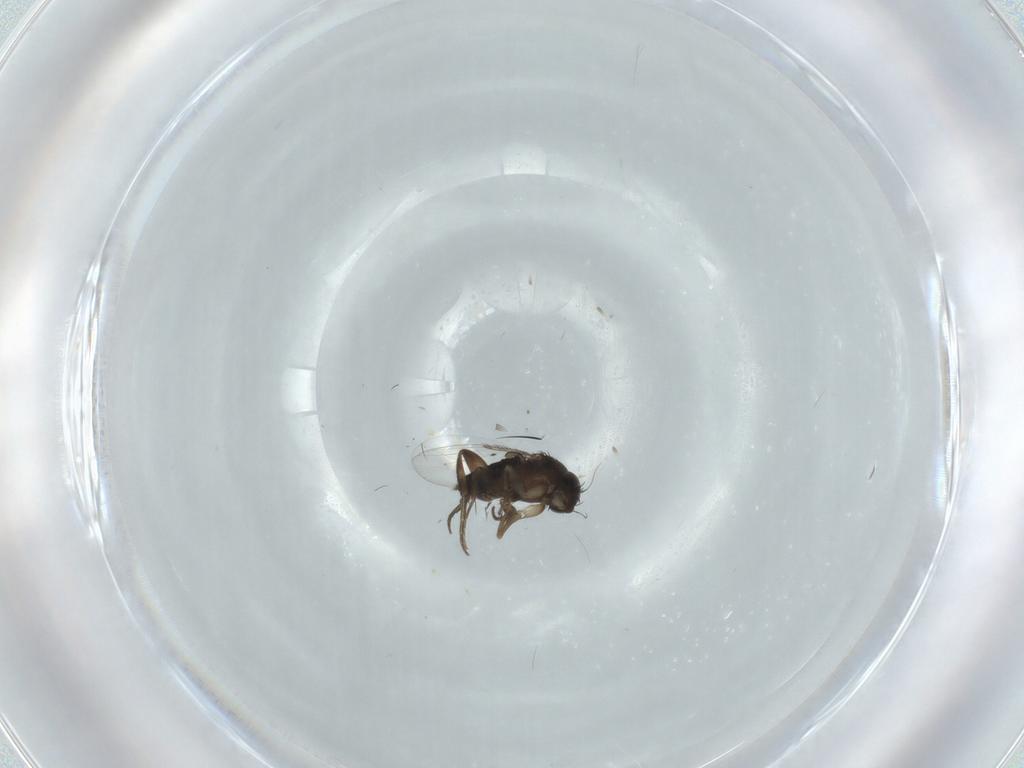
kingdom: Animalia
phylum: Arthropoda
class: Insecta
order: Diptera
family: Phoridae
